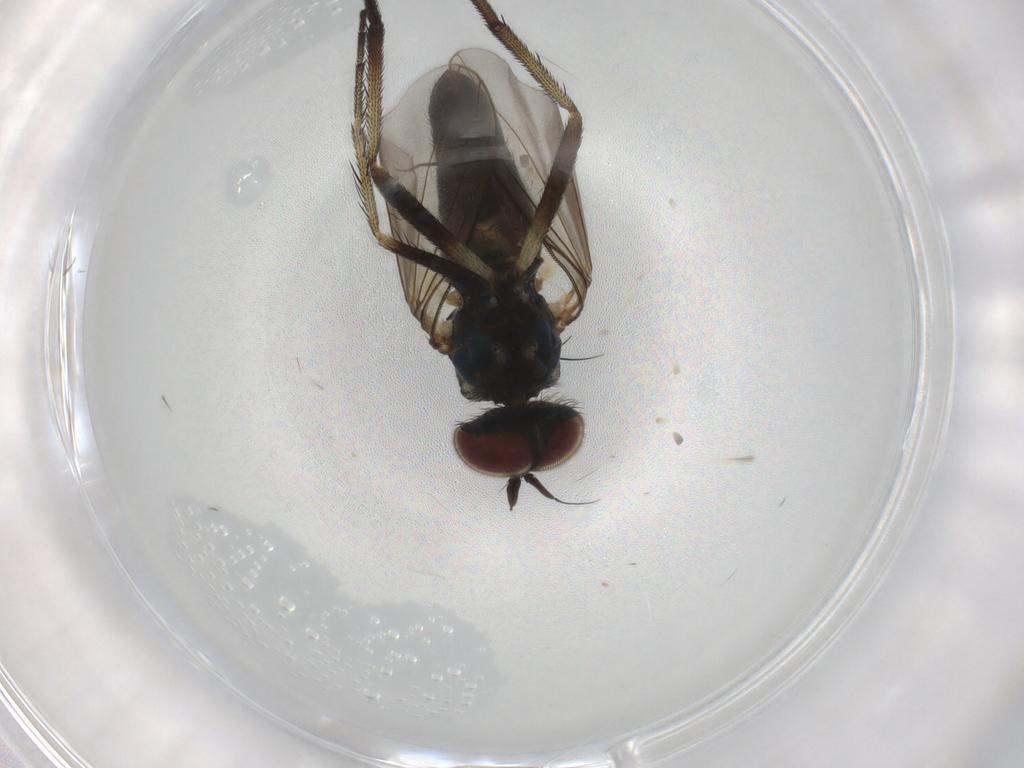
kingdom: Animalia
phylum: Arthropoda
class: Insecta
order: Diptera
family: Dolichopodidae
